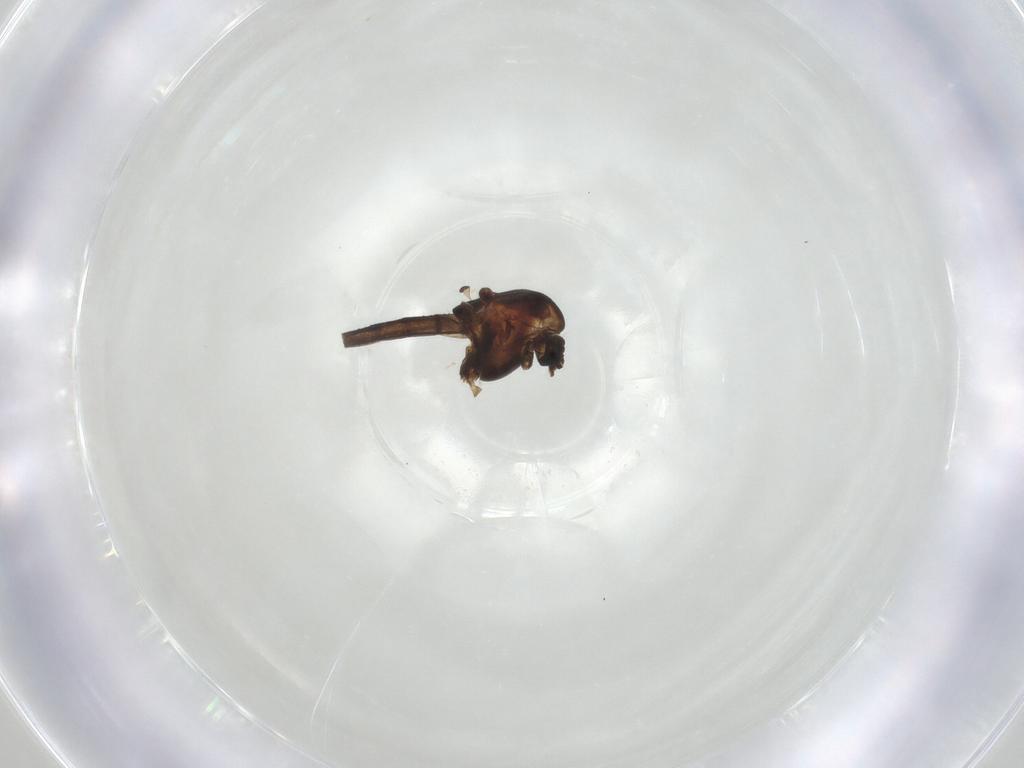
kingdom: Animalia
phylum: Arthropoda
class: Insecta
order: Diptera
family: Chironomidae
